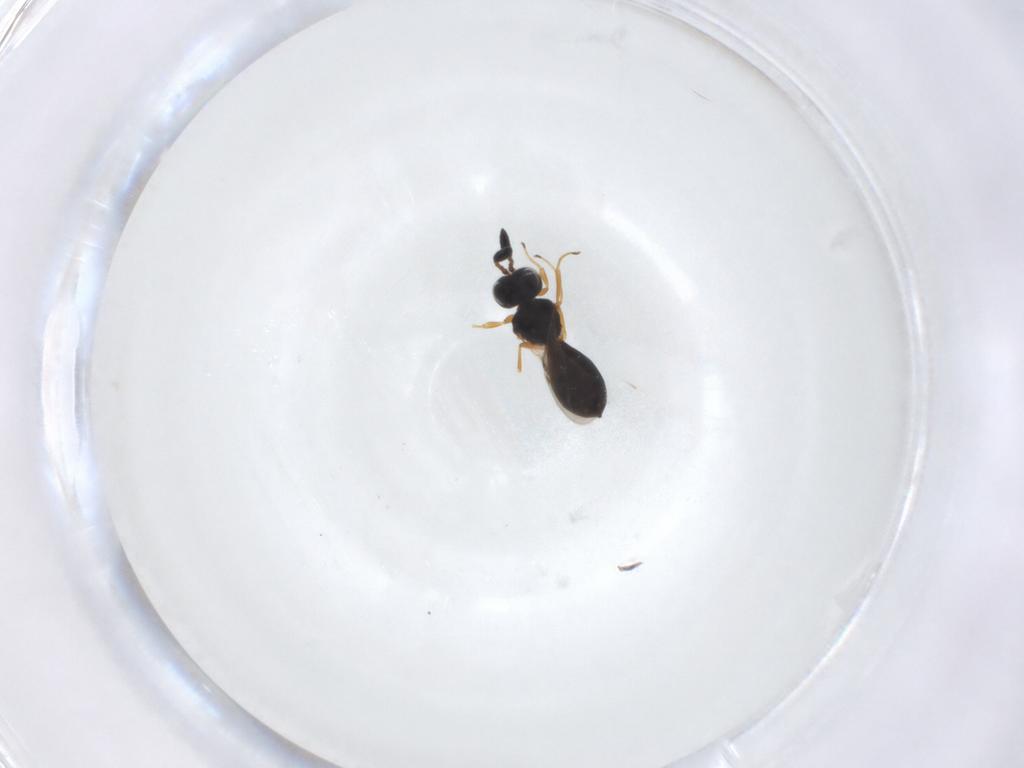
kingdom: Animalia
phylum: Arthropoda
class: Insecta
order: Hymenoptera
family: Scelionidae
